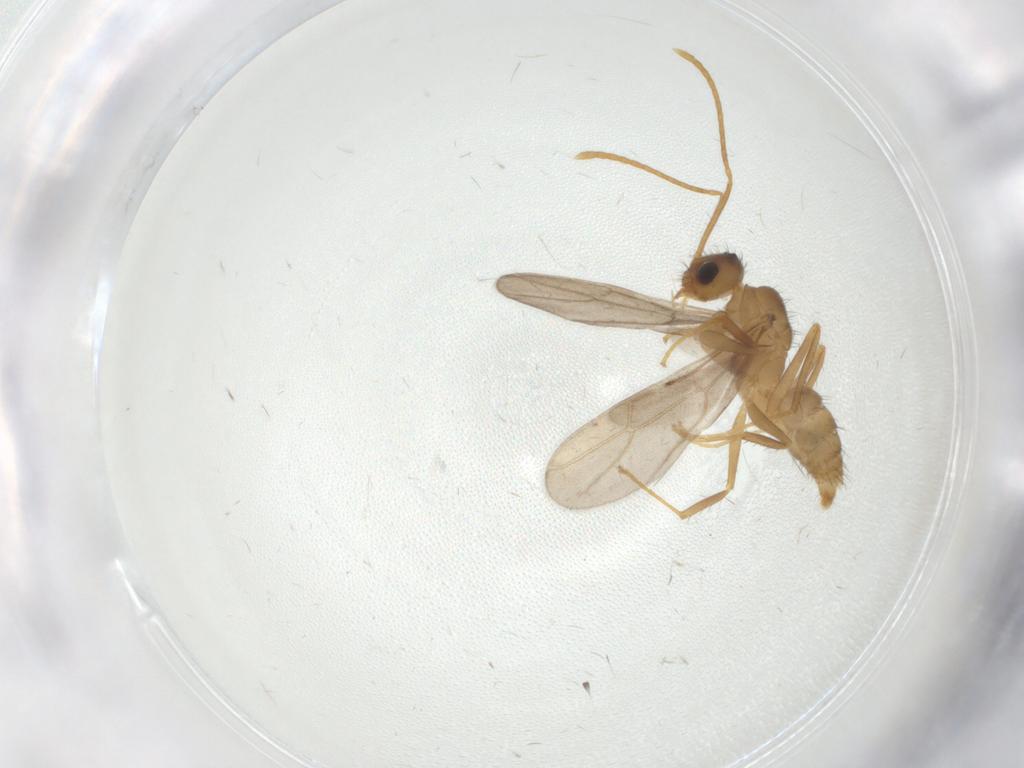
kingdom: Animalia
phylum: Arthropoda
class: Insecta
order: Hymenoptera
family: Formicidae
